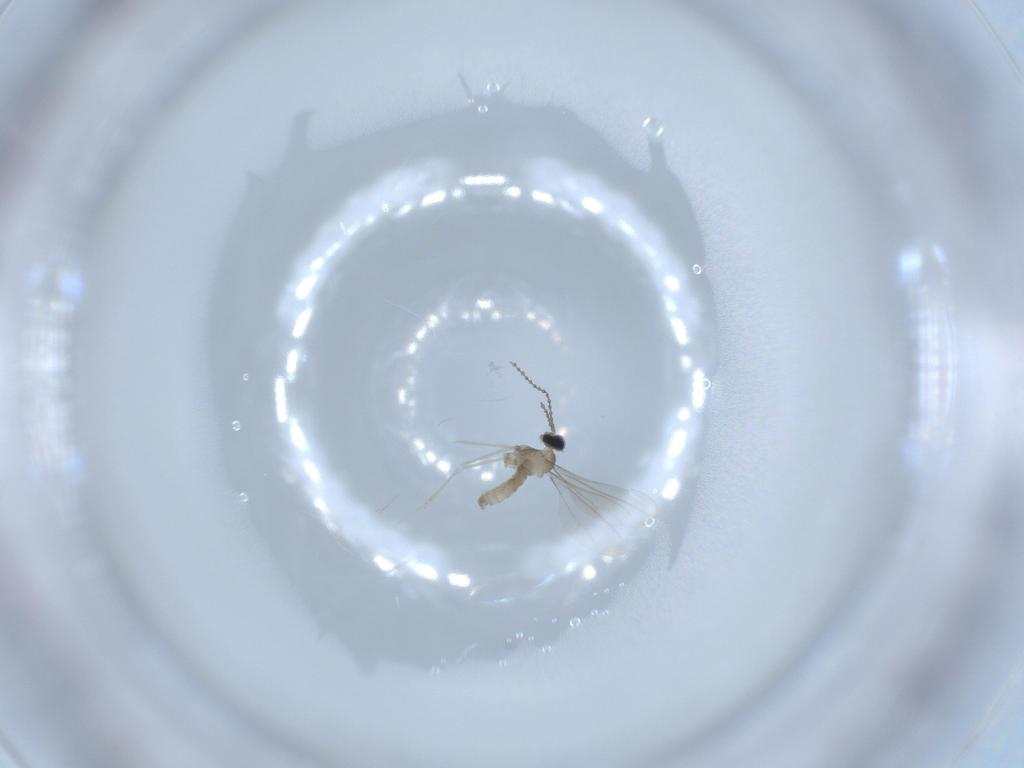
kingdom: Animalia
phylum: Arthropoda
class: Insecta
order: Diptera
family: Cecidomyiidae
